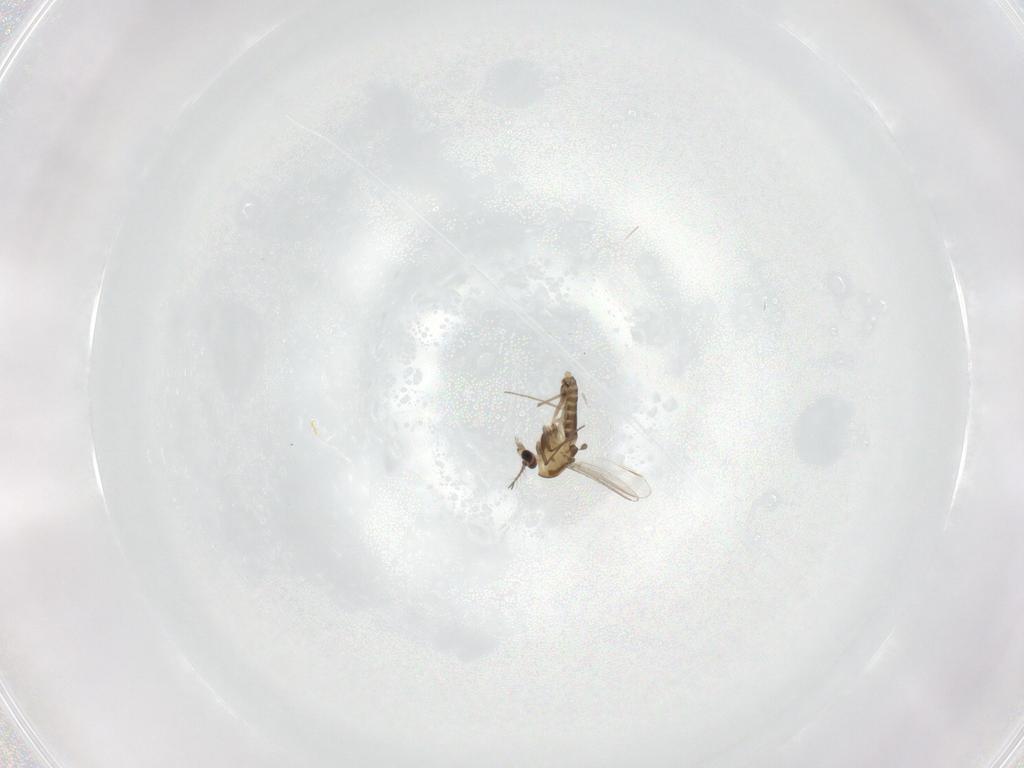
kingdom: Animalia
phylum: Arthropoda
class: Insecta
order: Diptera
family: Chironomidae
